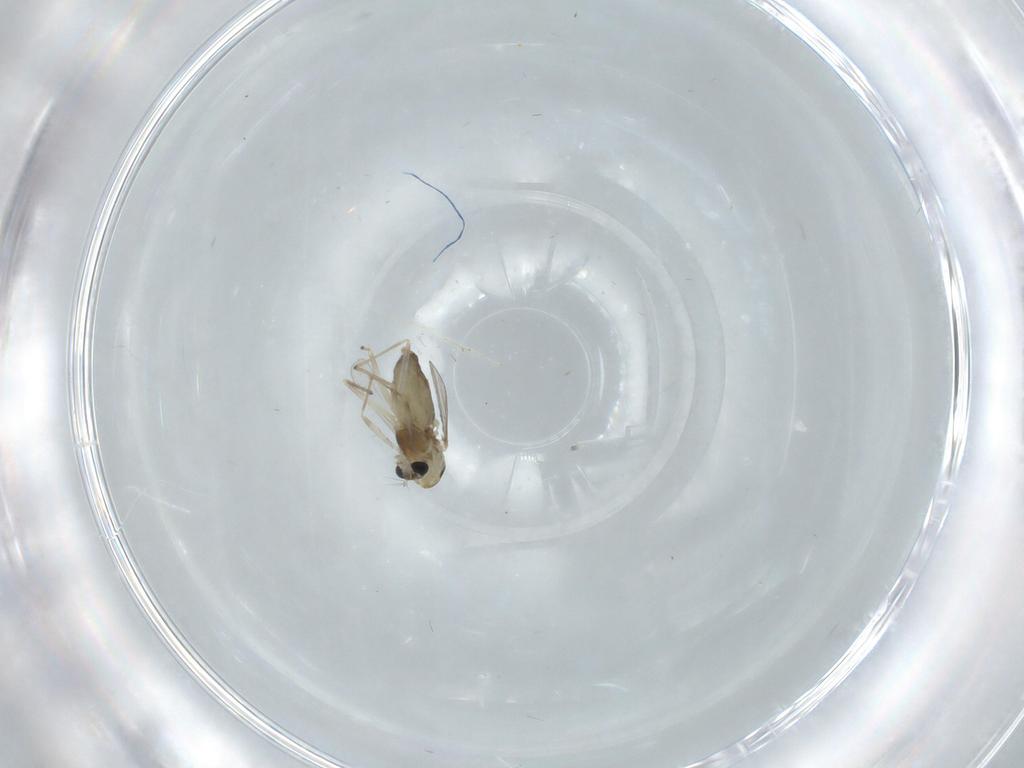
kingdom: Animalia
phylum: Arthropoda
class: Insecta
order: Diptera
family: Chironomidae
